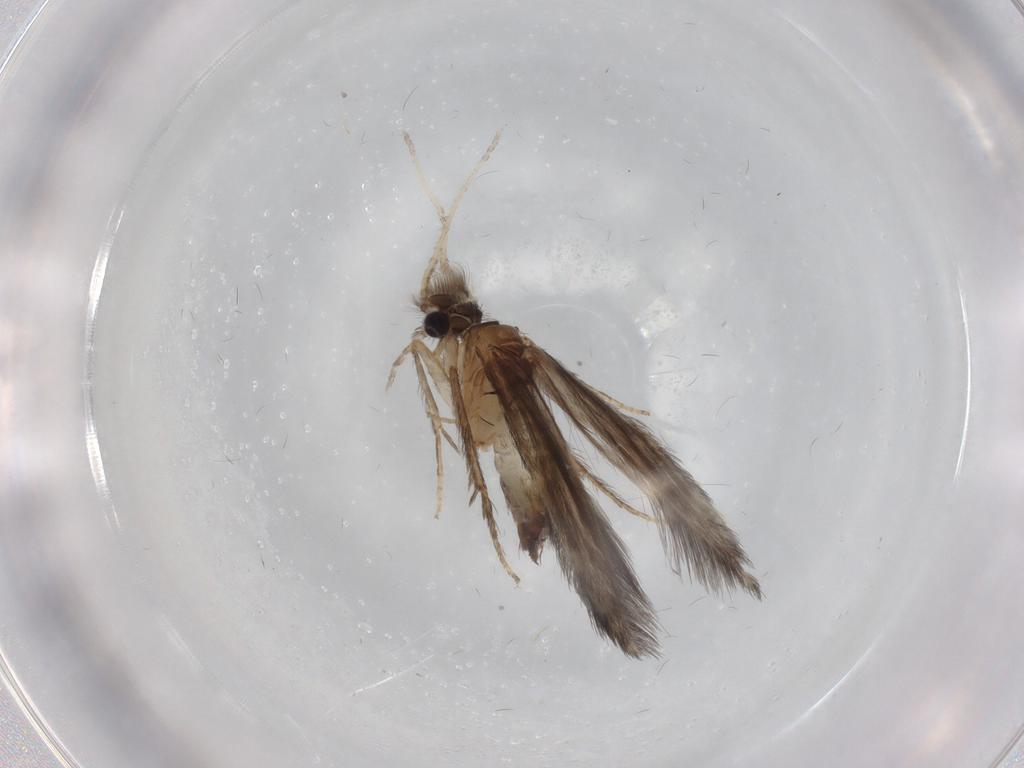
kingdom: Animalia
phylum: Arthropoda
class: Insecta
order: Trichoptera
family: Hydroptilidae
